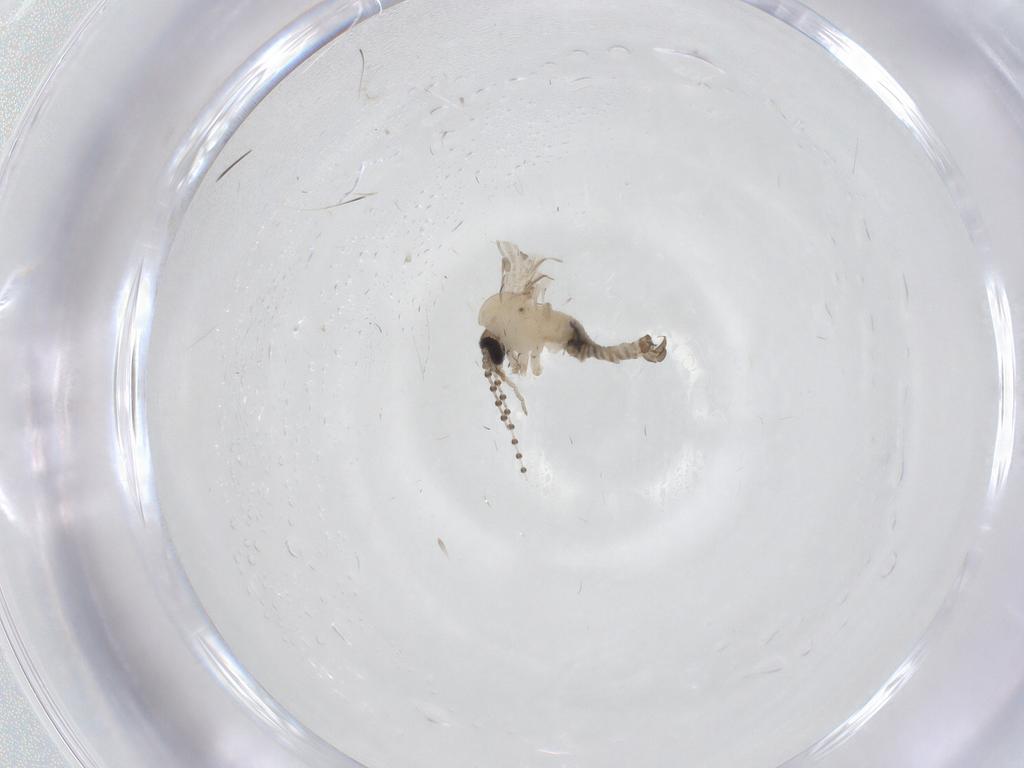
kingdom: Animalia
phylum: Arthropoda
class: Insecta
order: Diptera
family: Psychodidae
